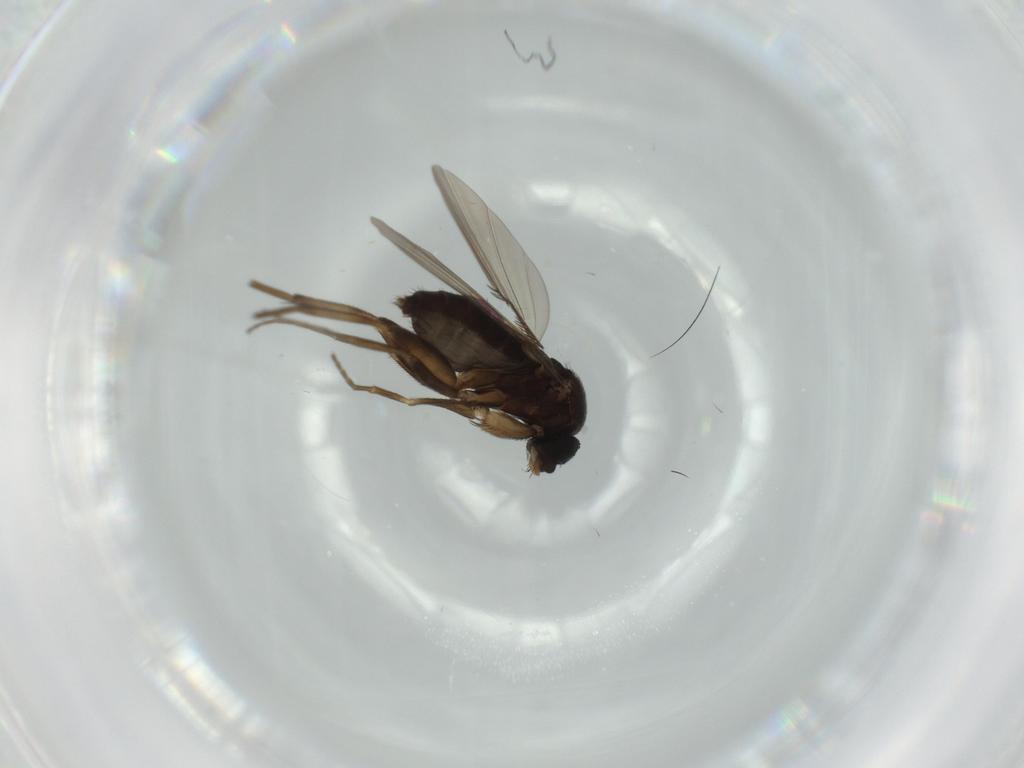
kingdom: Animalia
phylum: Arthropoda
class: Insecta
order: Diptera
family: Phoridae
